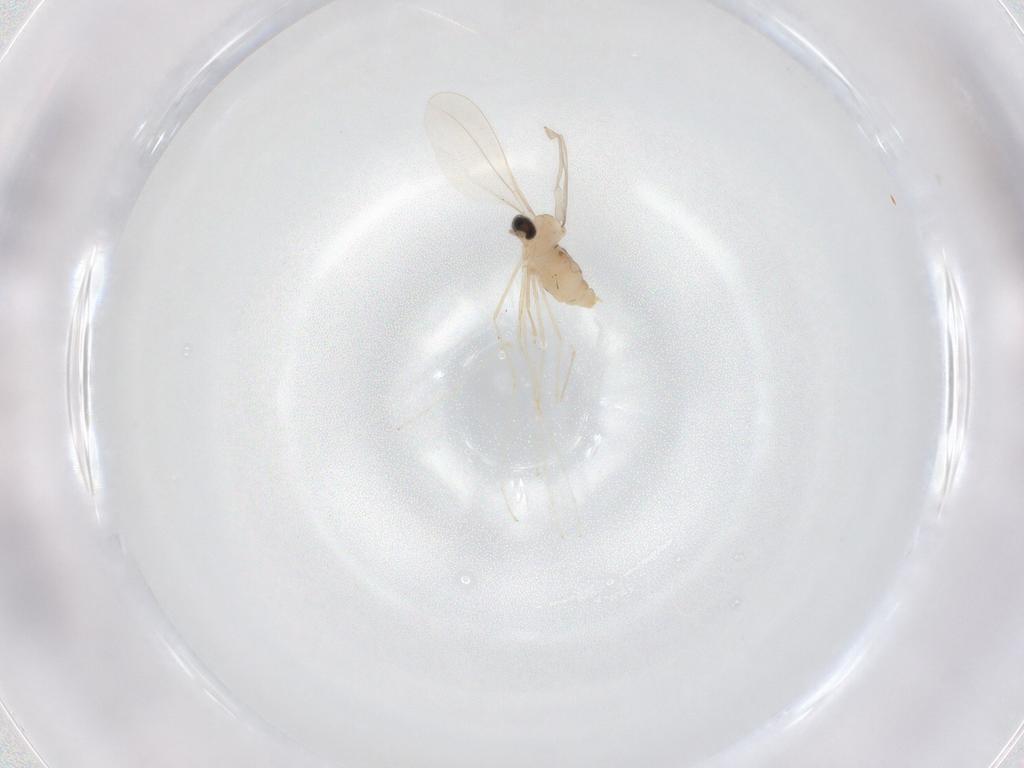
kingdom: Animalia
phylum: Arthropoda
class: Insecta
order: Diptera
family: Cecidomyiidae
